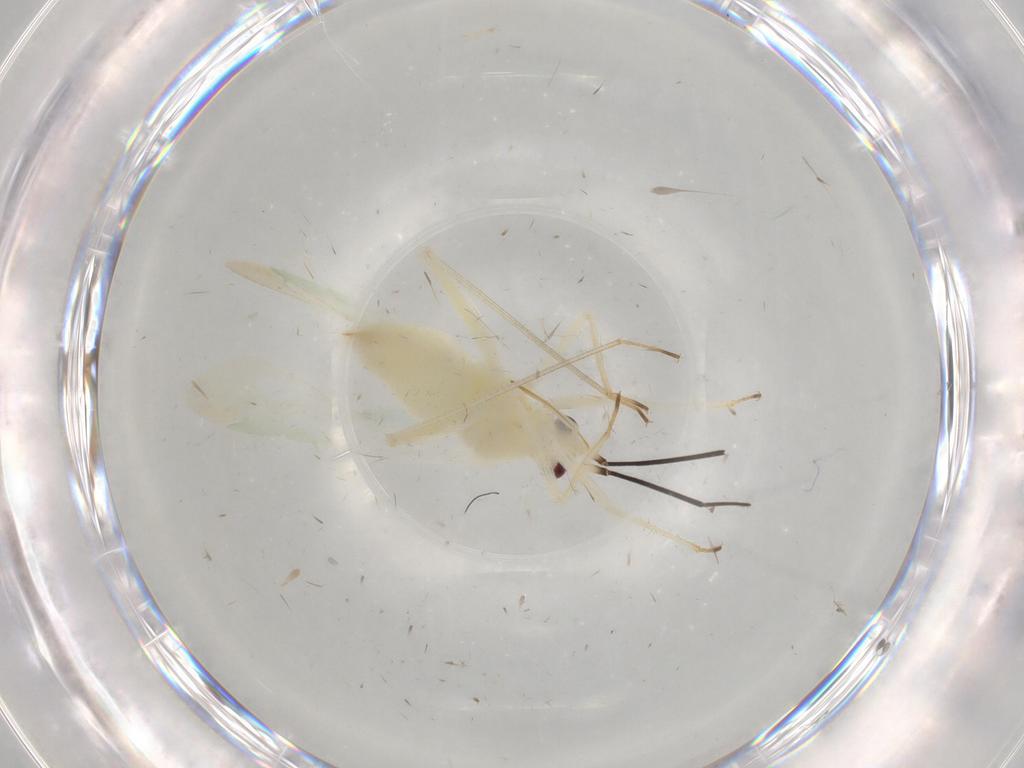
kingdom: Animalia
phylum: Arthropoda
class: Insecta
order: Hemiptera
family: Miridae
